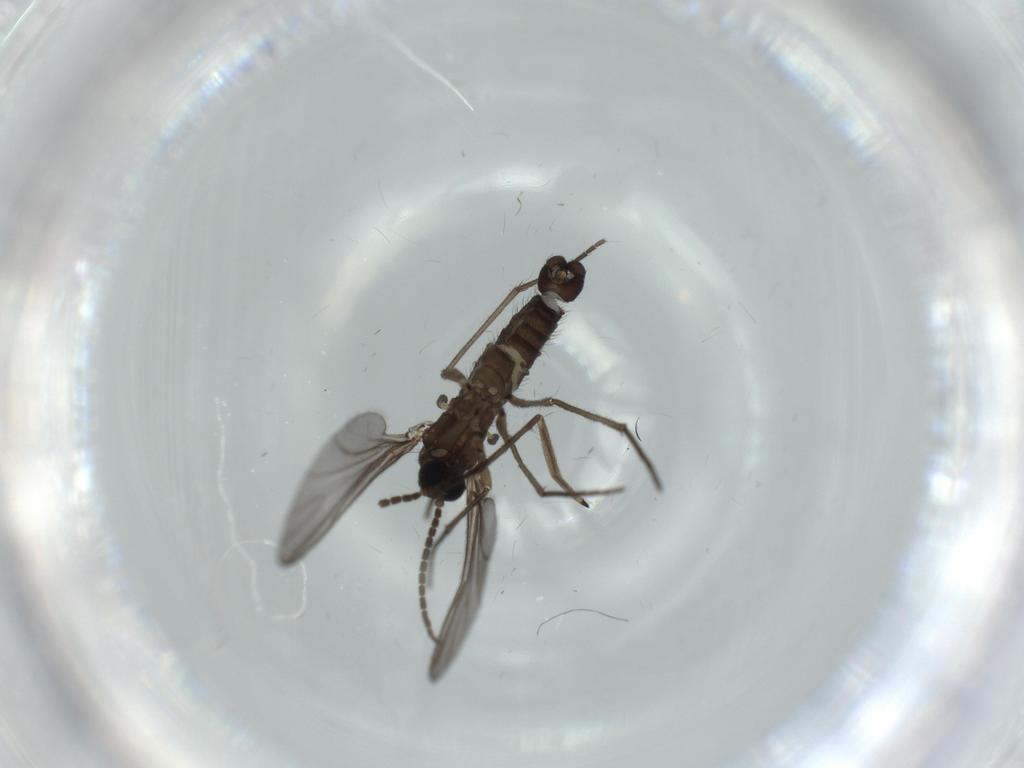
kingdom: Animalia
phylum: Arthropoda
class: Insecta
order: Diptera
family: Sciaridae
